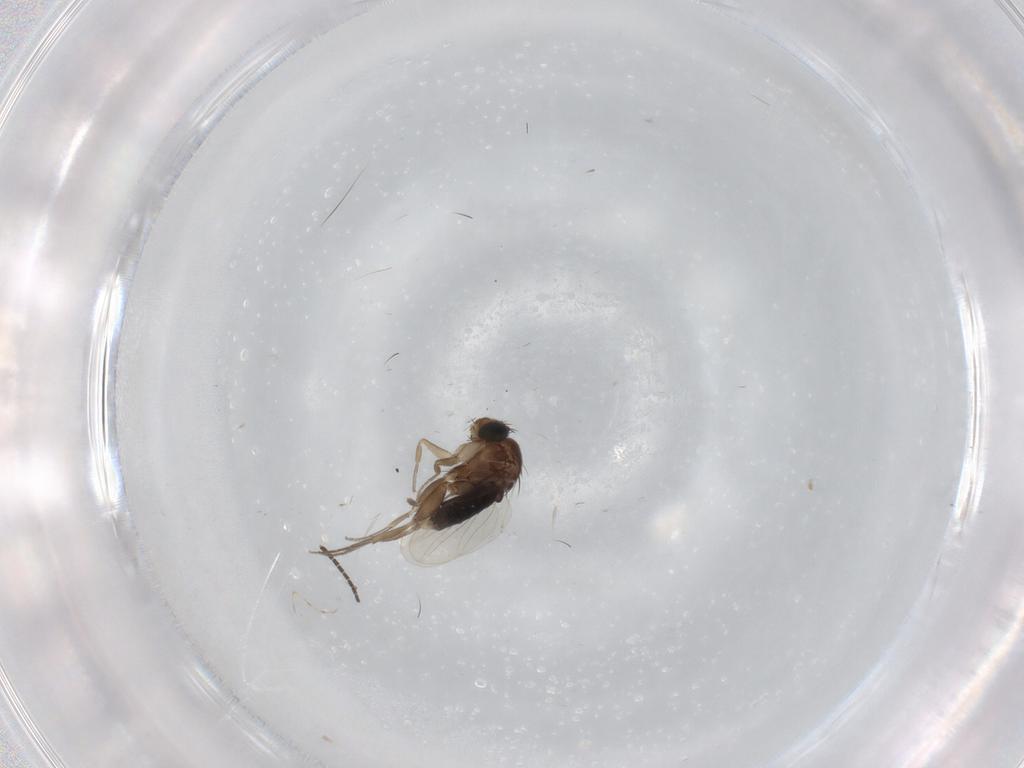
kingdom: Animalia
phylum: Arthropoda
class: Insecta
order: Diptera
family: Phoridae
